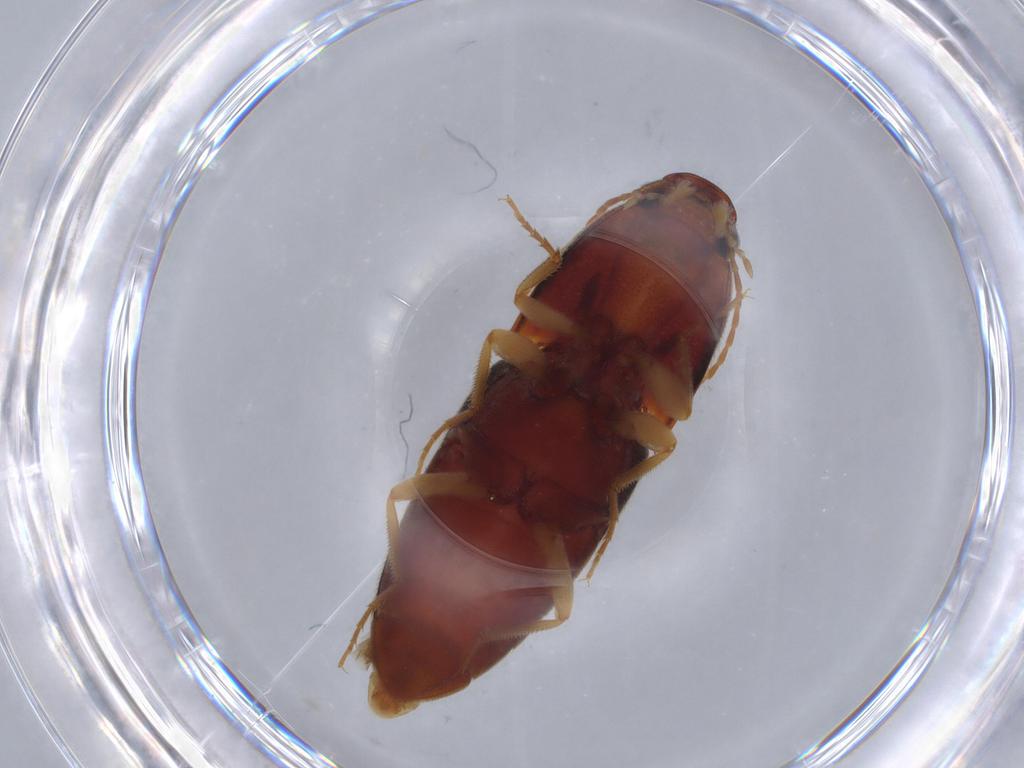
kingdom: Animalia
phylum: Arthropoda
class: Insecta
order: Coleoptera
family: Elateridae
